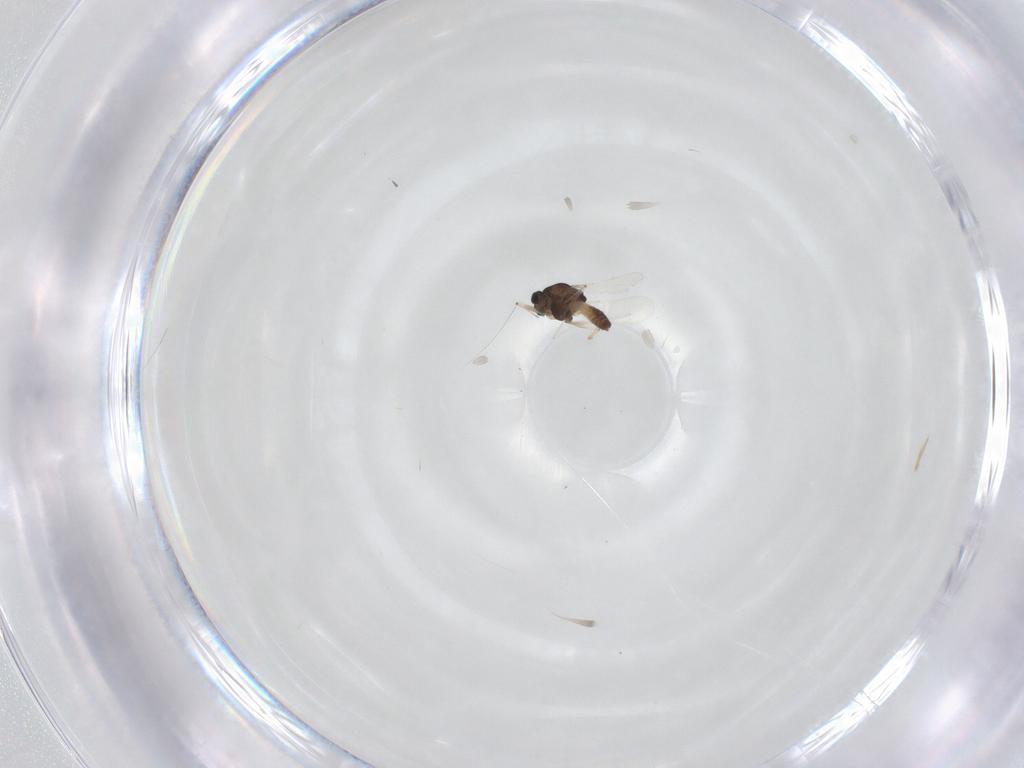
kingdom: Animalia
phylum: Arthropoda
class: Insecta
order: Diptera
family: Chironomidae
